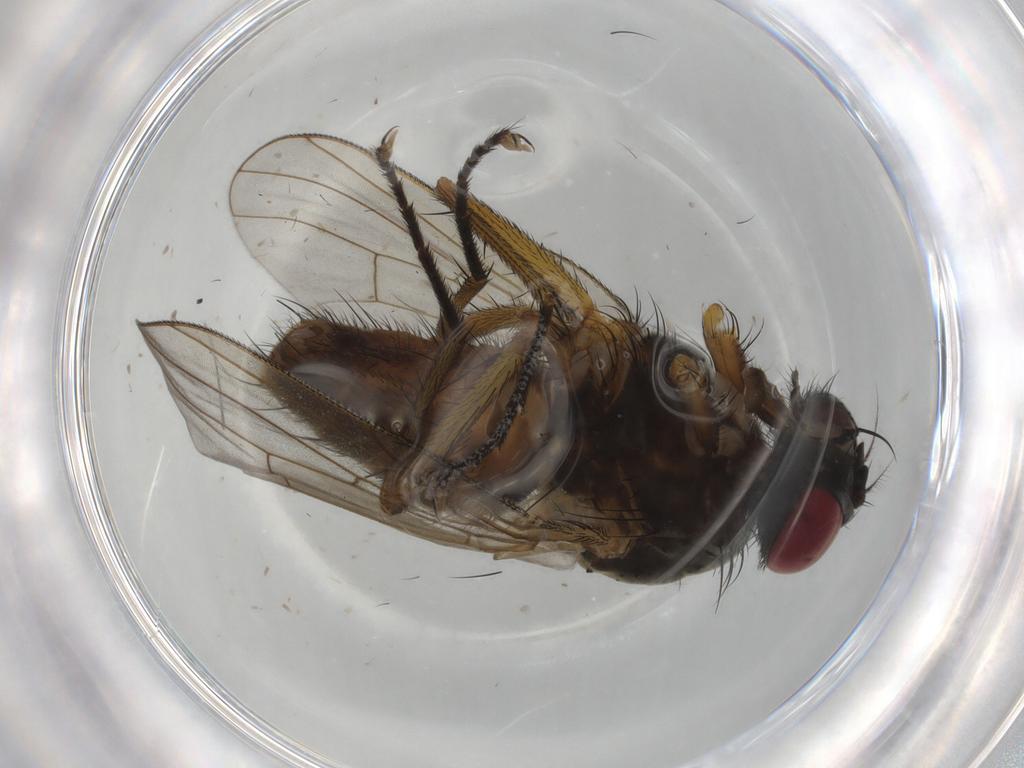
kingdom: Animalia
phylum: Arthropoda
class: Insecta
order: Diptera
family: Muscidae
